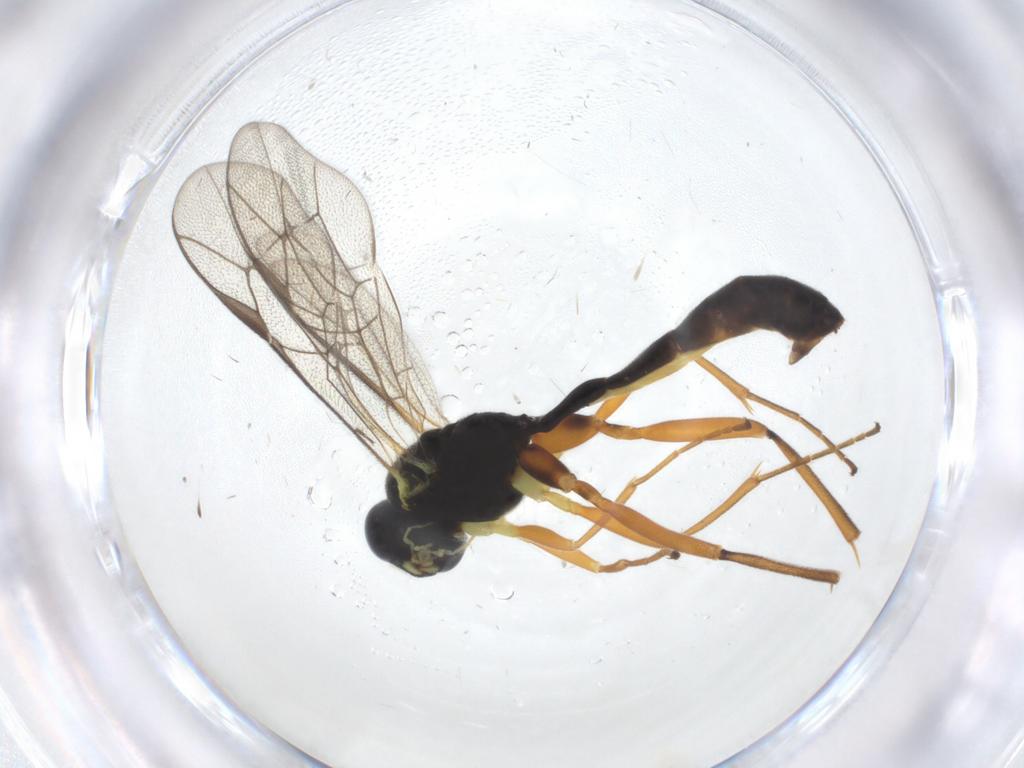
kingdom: Animalia
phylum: Arthropoda
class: Insecta
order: Hymenoptera
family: Ichneumonidae
